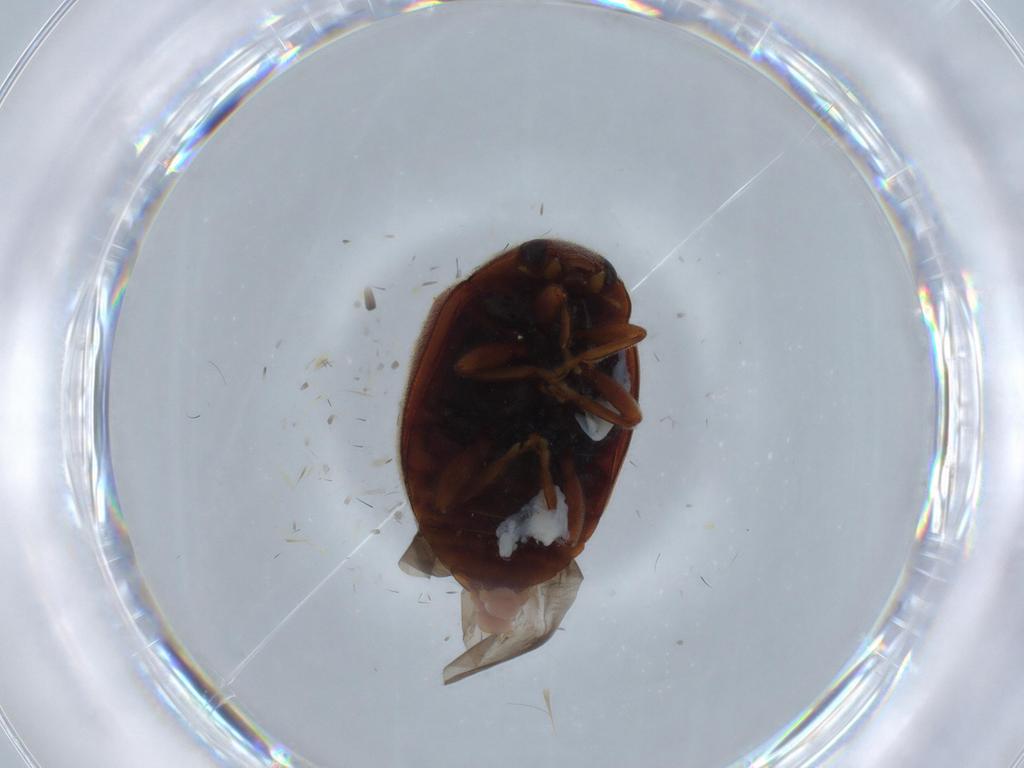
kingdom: Animalia
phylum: Arthropoda
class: Insecta
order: Coleoptera
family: Coccinellidae
